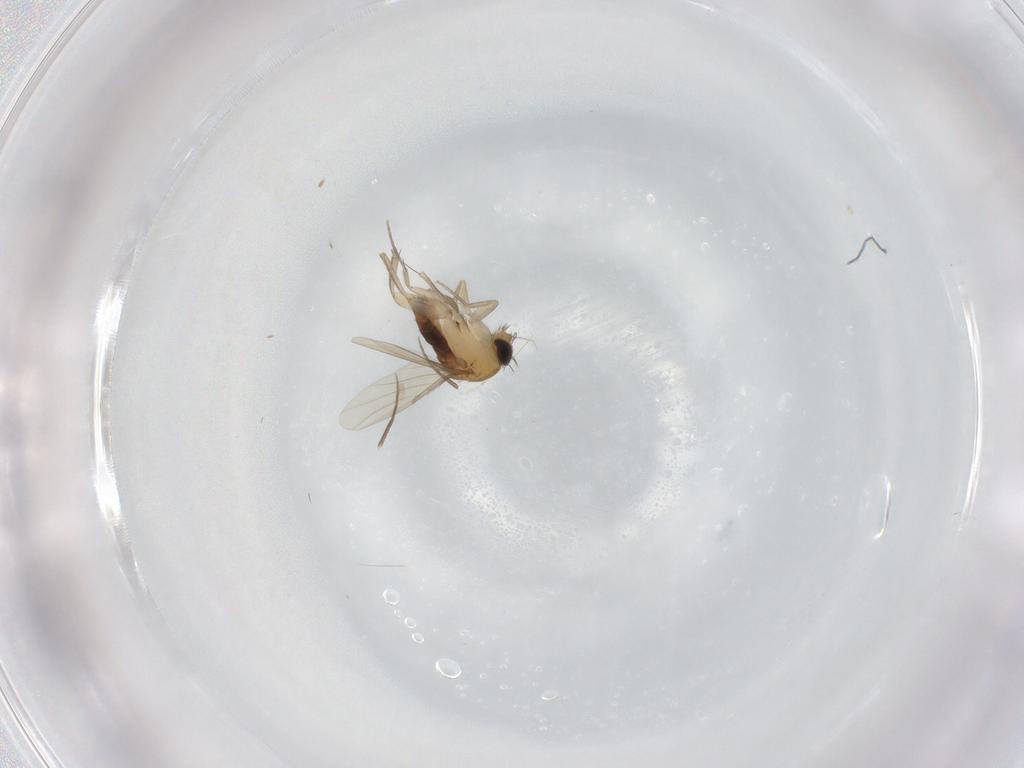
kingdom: Animalia
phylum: Arthropoda
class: Insecta
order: Diptera
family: Phoridae
